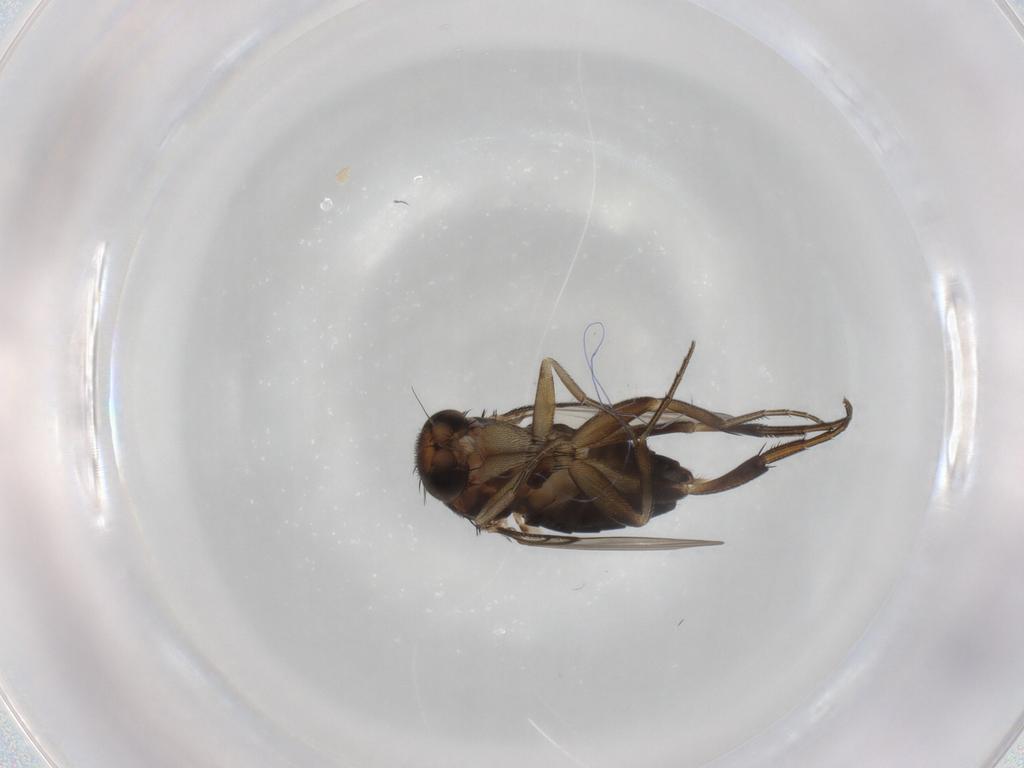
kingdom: Animalia
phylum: Arthropoda
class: Insecta
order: Diptera
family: Phoridae
